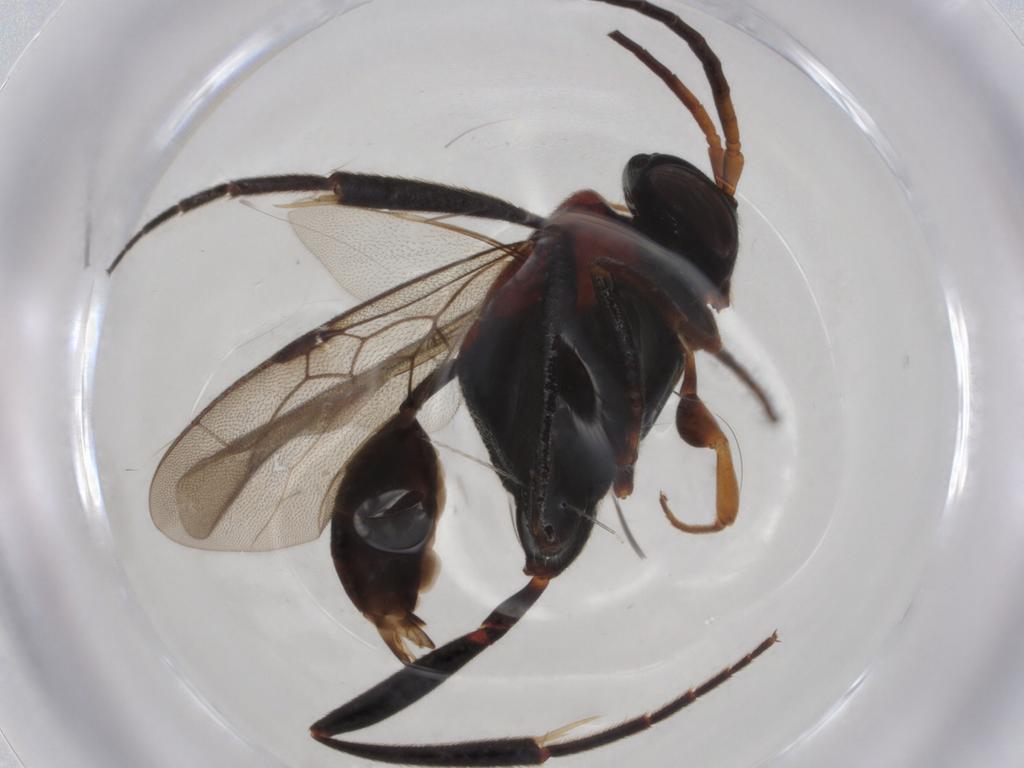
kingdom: Animalia
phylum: Arthropoda
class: Insecta
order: Hymenoptera
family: Evaniidae
